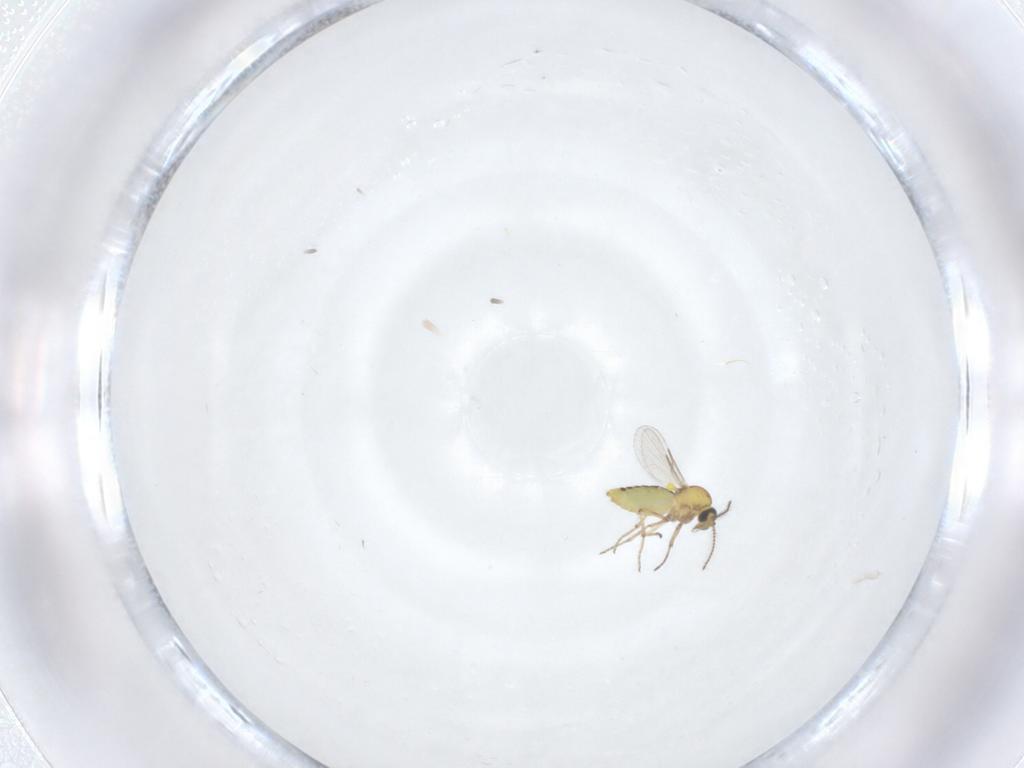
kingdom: Animalia
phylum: Arthropoda
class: Insecta
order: Diptera
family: Ceratopogonidae
